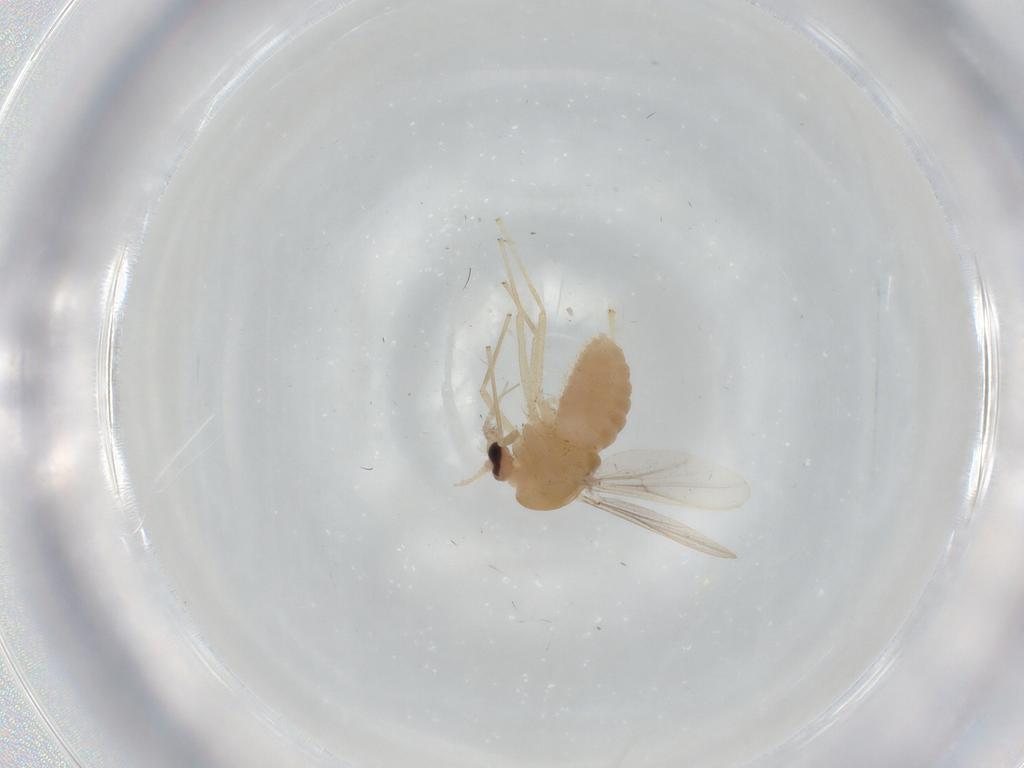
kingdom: Animalia
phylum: Arthropoda
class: Insecta
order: Diptera
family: Chironomidae
